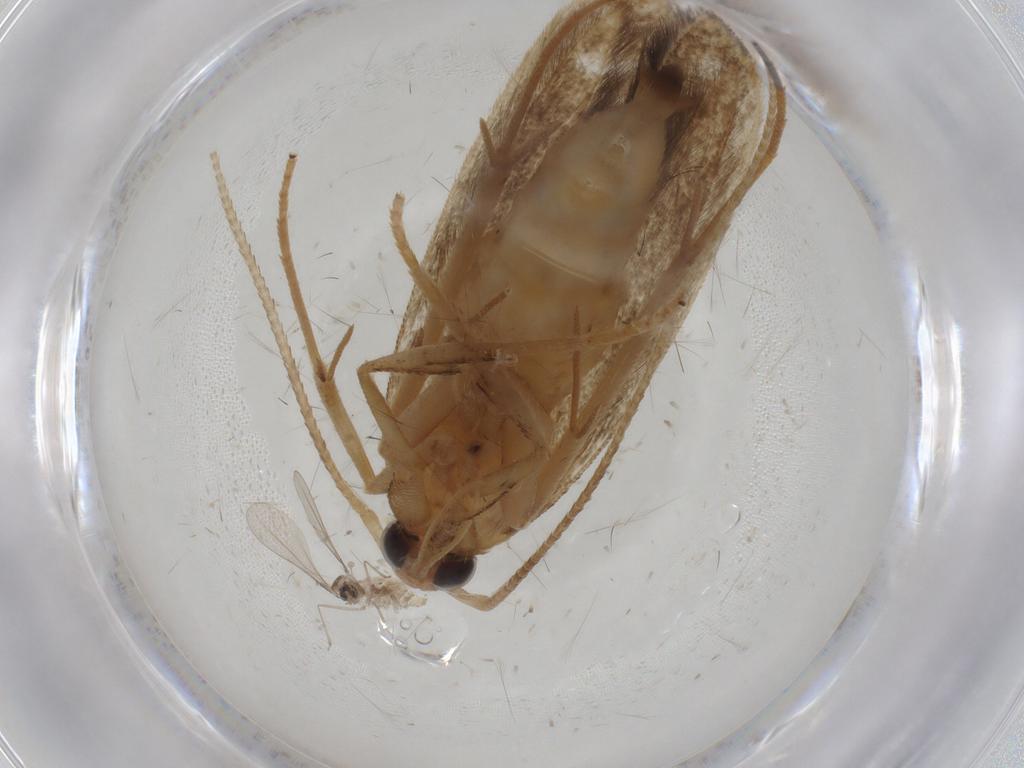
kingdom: Animalia
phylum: Arthropoda
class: Insecta
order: Lepidoptera
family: Coleophoridae
